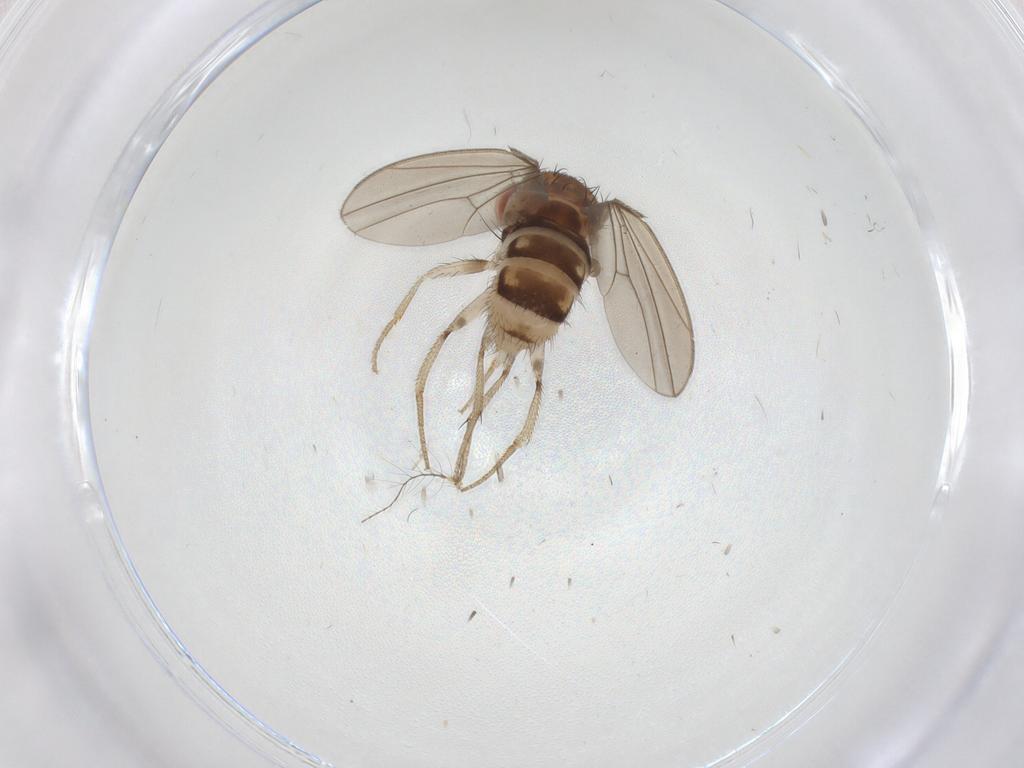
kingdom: Animalia
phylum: Arthropoda
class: Insecta
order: Diptera
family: Drosophilidae
